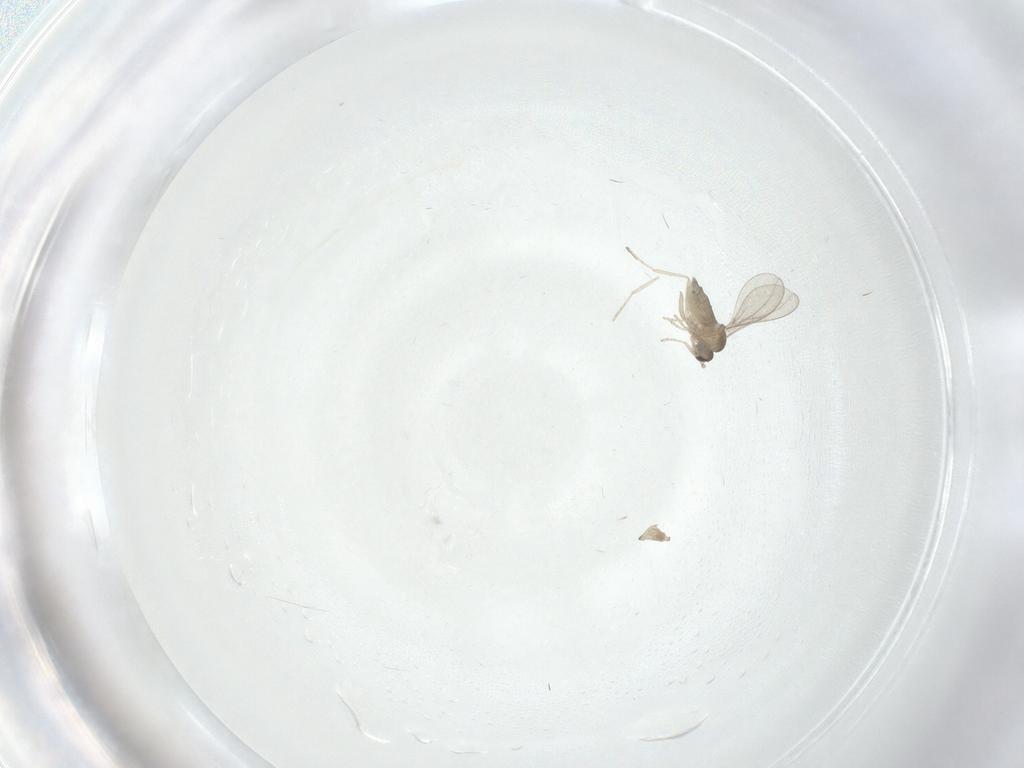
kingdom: Animalia
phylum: Arthropoda
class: Insecta
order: Diptera
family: Cecidomyiidae
